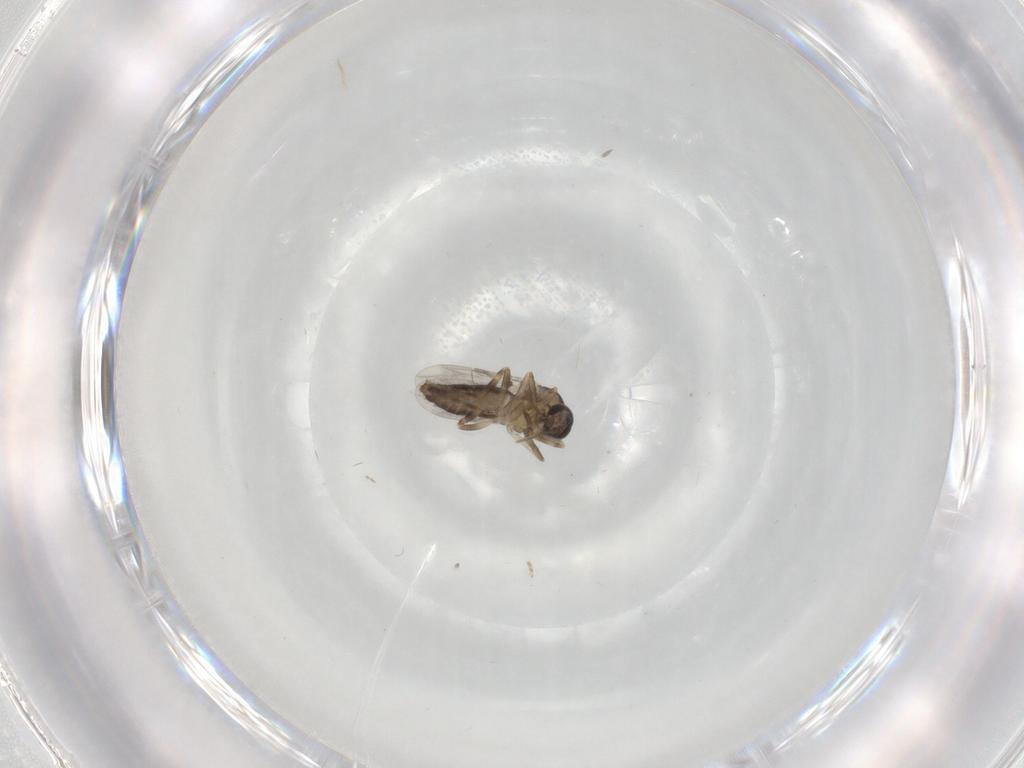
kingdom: Animalia
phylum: Arthropoda
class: Insecta
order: Diptera
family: Ceratopogonidae
